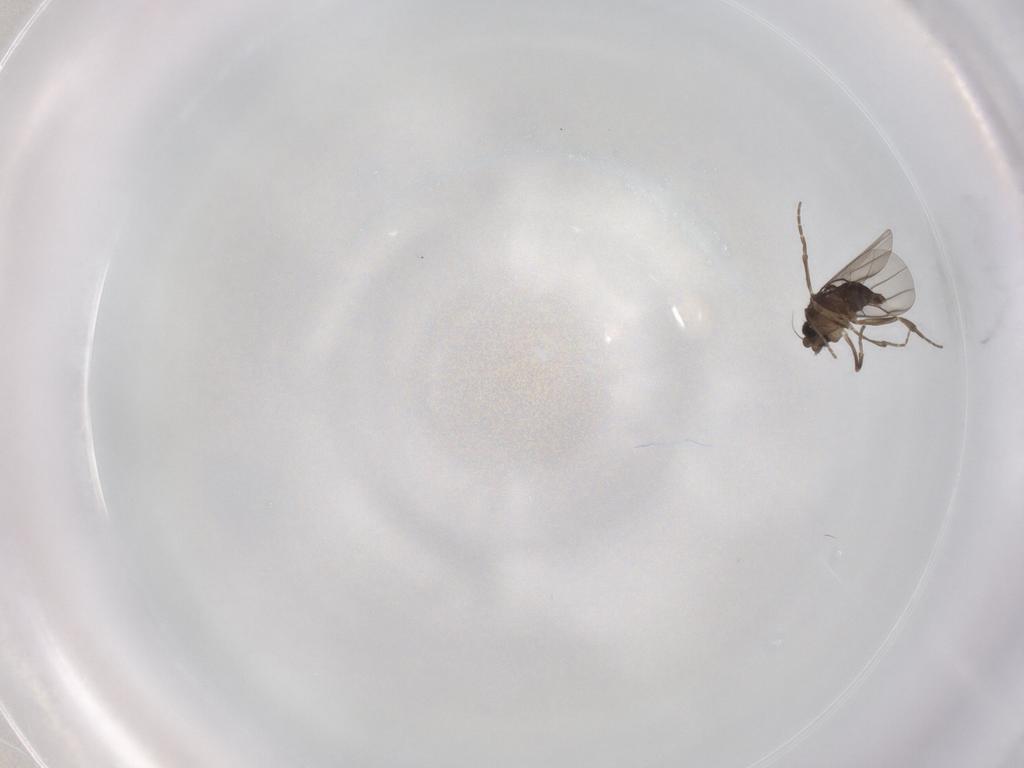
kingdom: Animalia
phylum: Arthropoda
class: Insecta
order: Diptera
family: Phoridae
